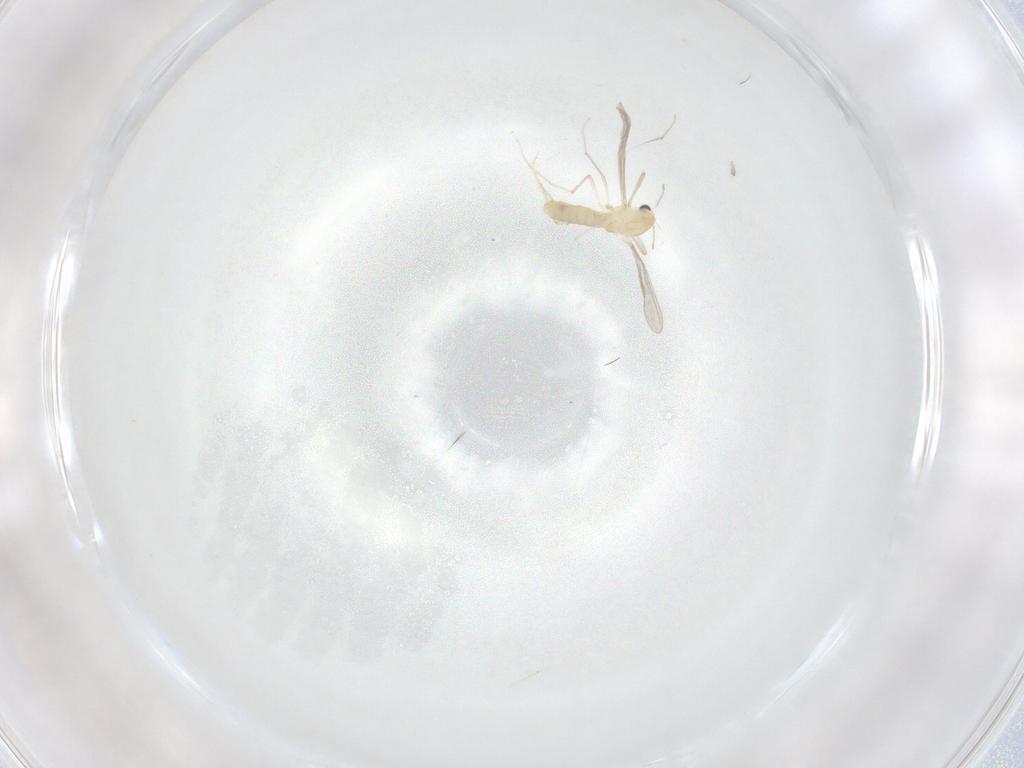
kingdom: Animalia
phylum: Arthropoda
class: Insecta
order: Diptera
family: Chironomidae
